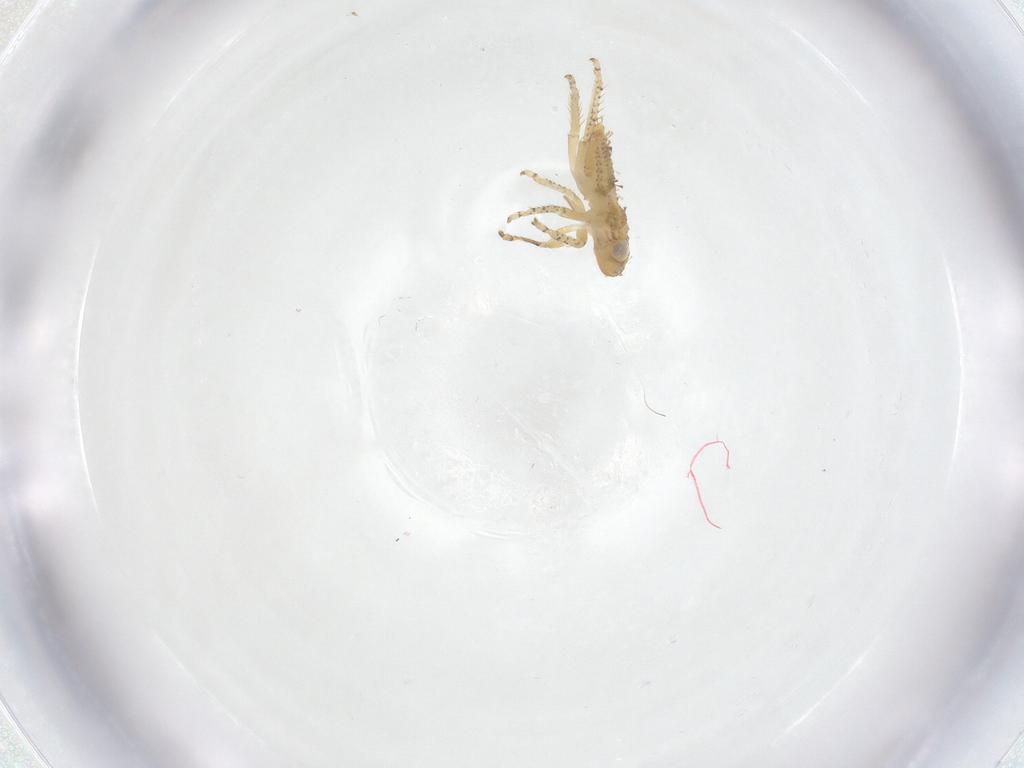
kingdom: Animalia
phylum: Arthropoda
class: Insecta
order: Hemiptera
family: Cicadellidae
